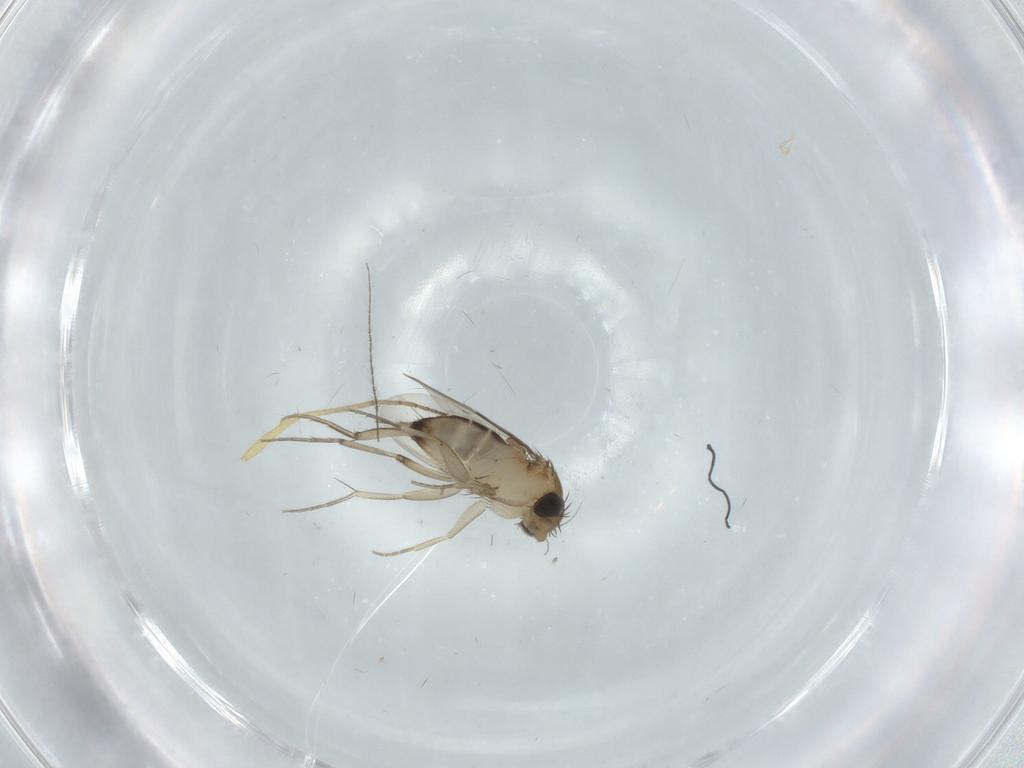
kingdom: Animalia
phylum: Arthropoda
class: Insecta
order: Diptera
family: Phoridae
